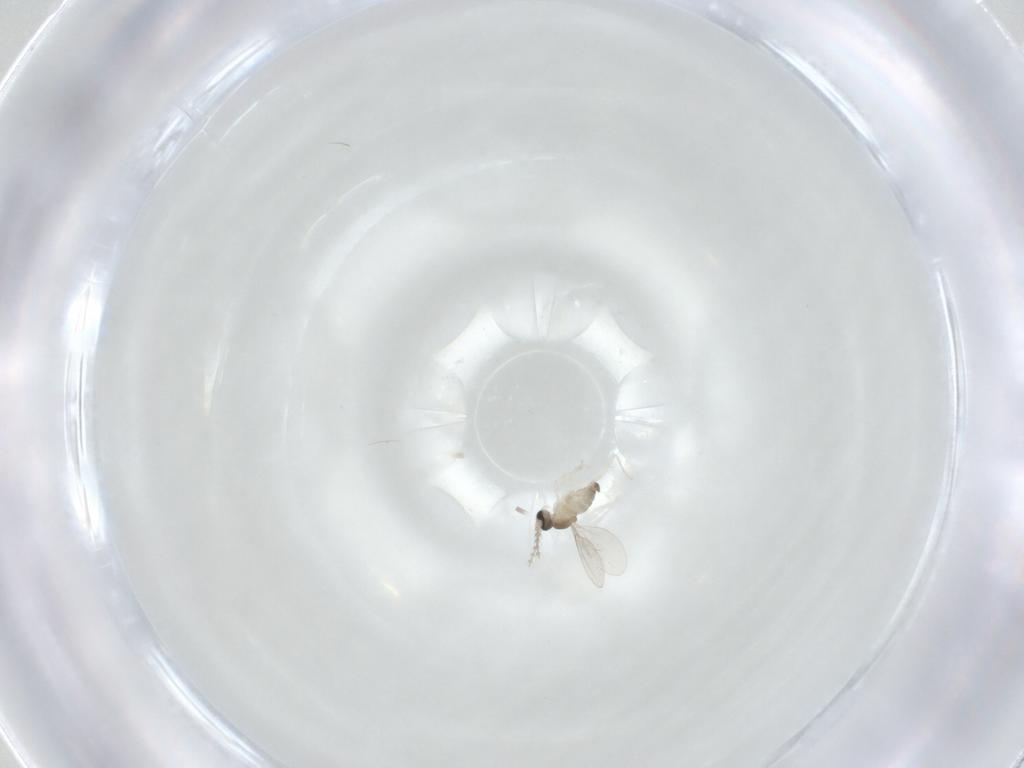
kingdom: Animalia
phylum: Arthropoda
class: Insecta
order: Diptera
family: Cecidomyiidae
